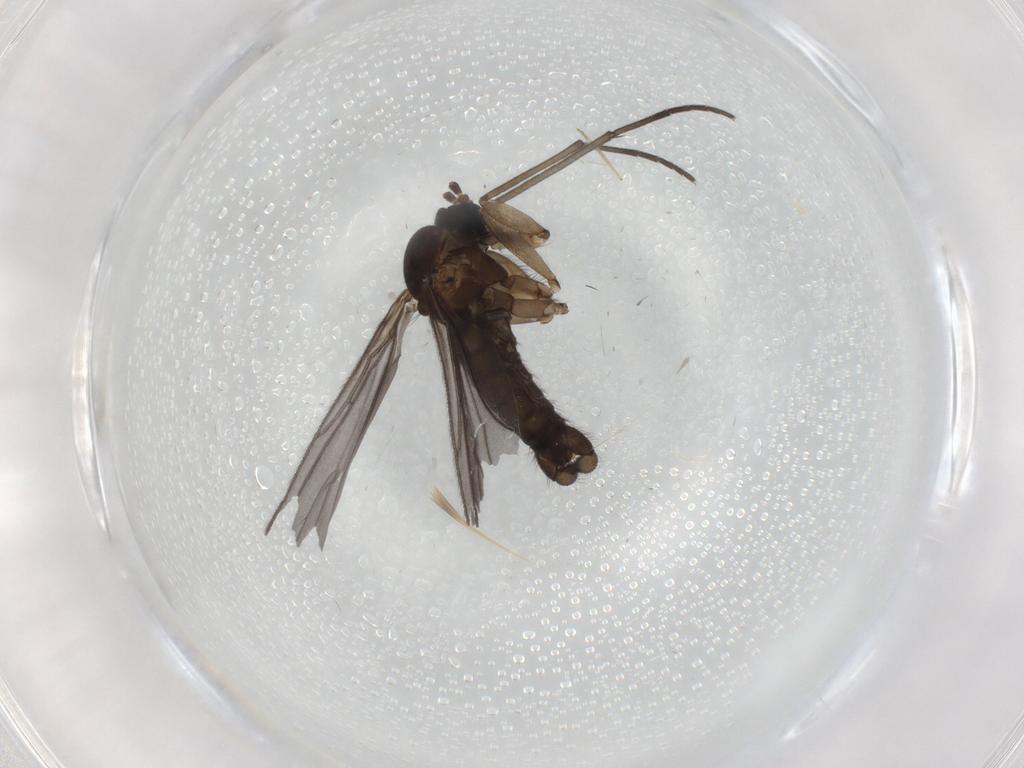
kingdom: Animalia
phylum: Arthropoda
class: Insecta
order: Diptera
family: Sciaridae
